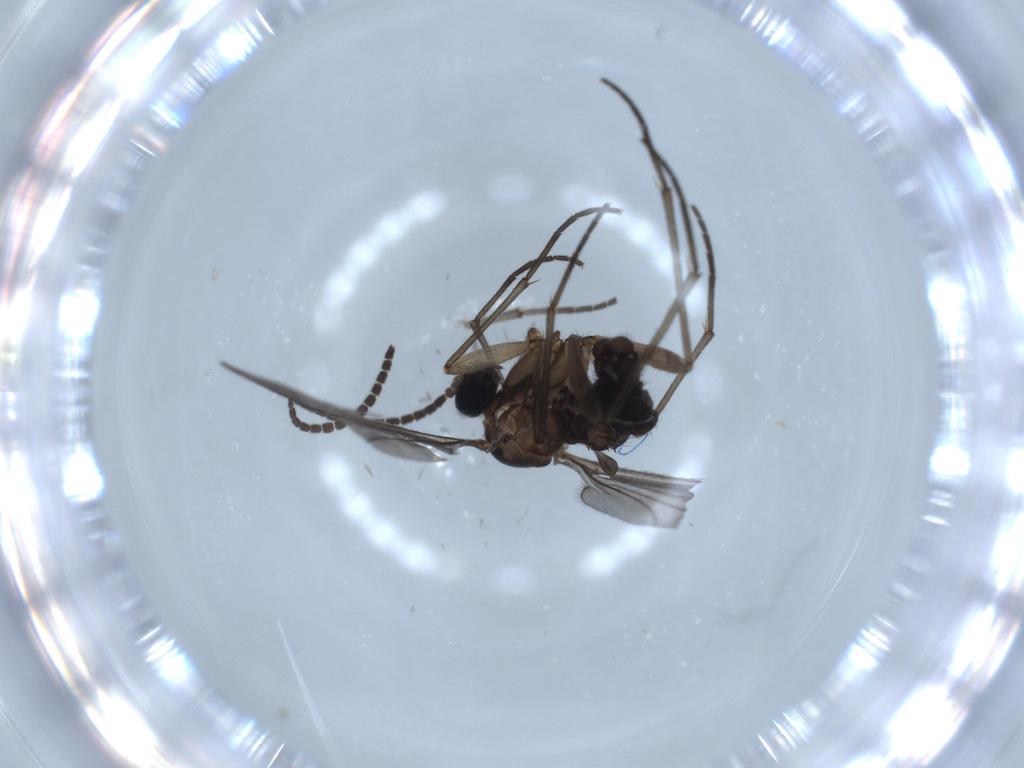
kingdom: Animalia
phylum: Arthropoda
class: Insecta
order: Diptera
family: Sciaridae
